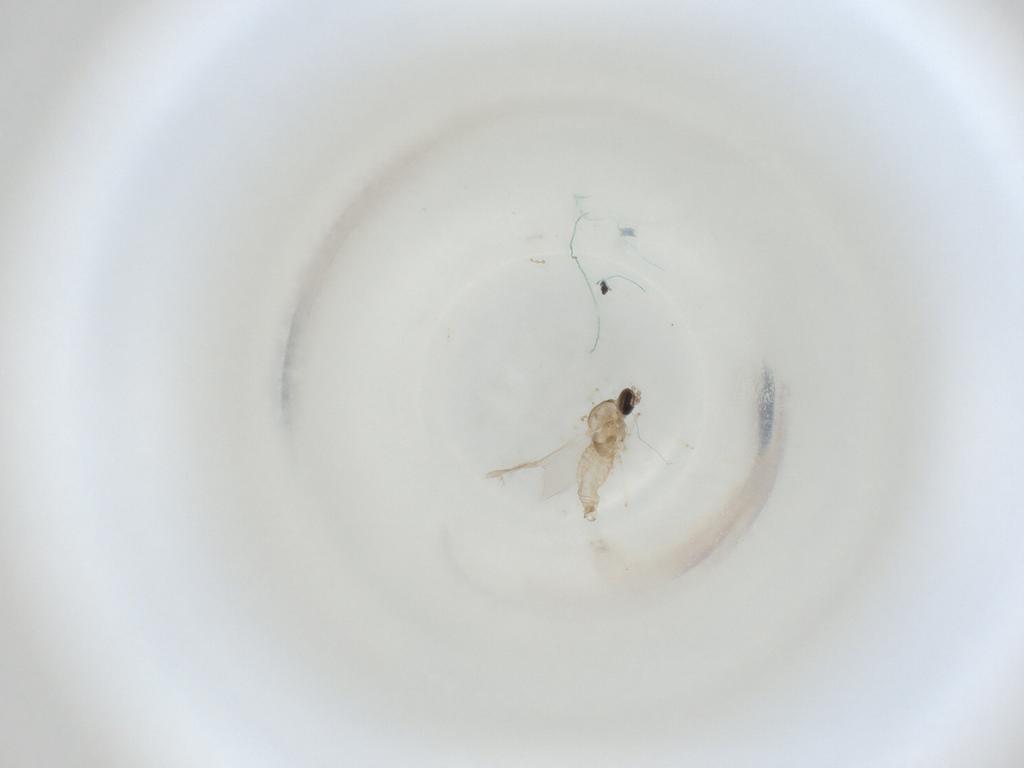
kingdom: Animalia
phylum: Arthropoda
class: Insecta
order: Diptera
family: Cecidomyiidae
